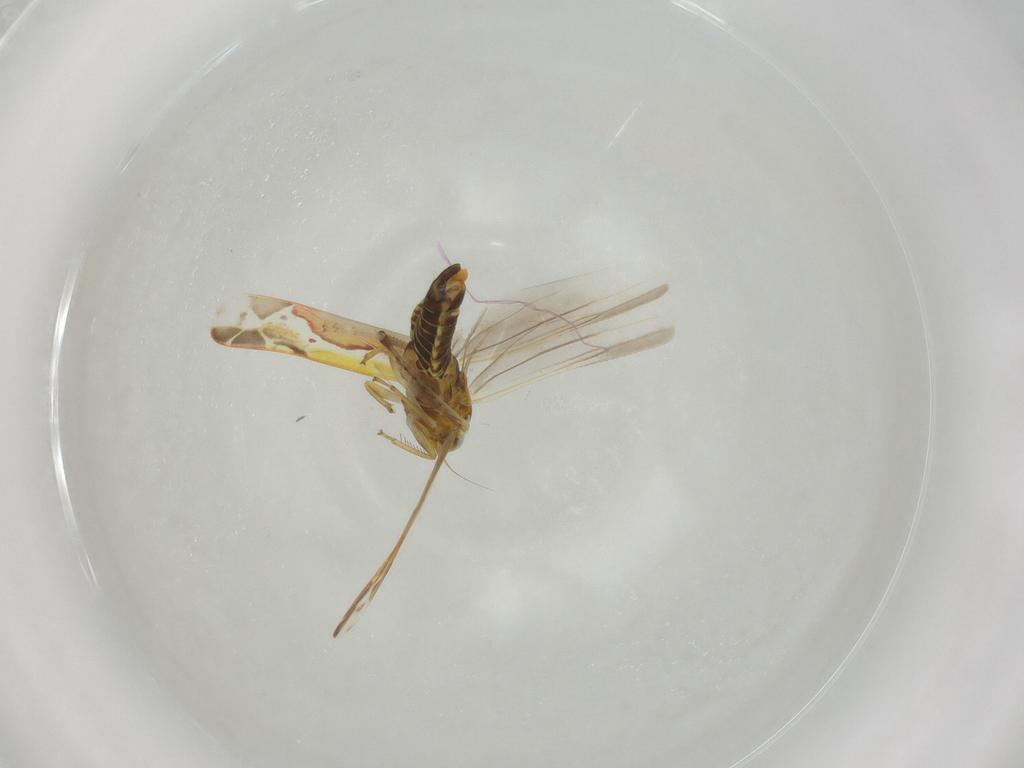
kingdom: Animalia
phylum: Arthropoda
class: Insecta
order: Hemiptera
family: Cicadellidae
